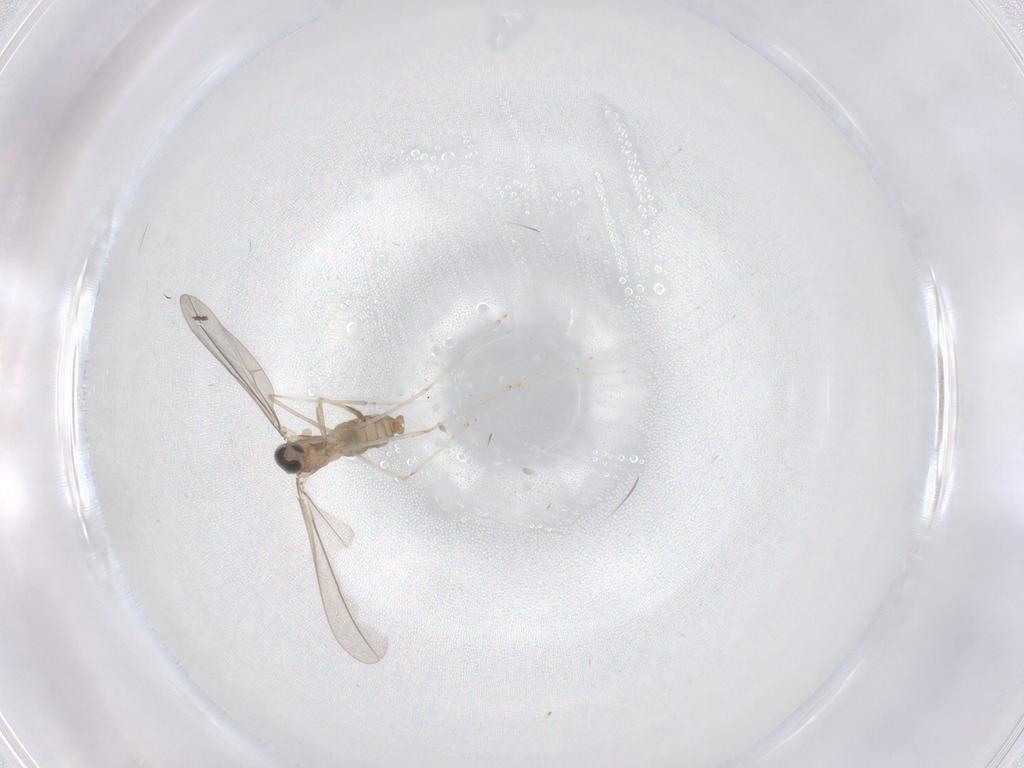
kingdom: Animalia
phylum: Arthropoda
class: Insecta
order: Diptera
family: Cecidomyiidae
